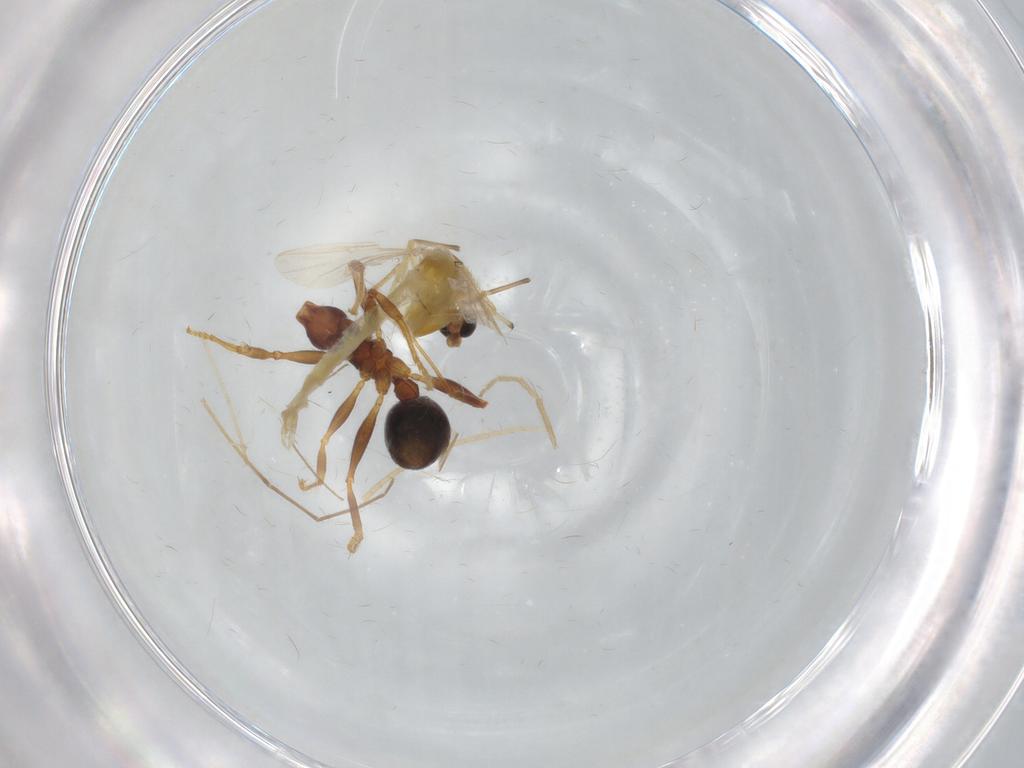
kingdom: Animalia
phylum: Arthropoda
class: Insecta
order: Diptera
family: Chironomidae
